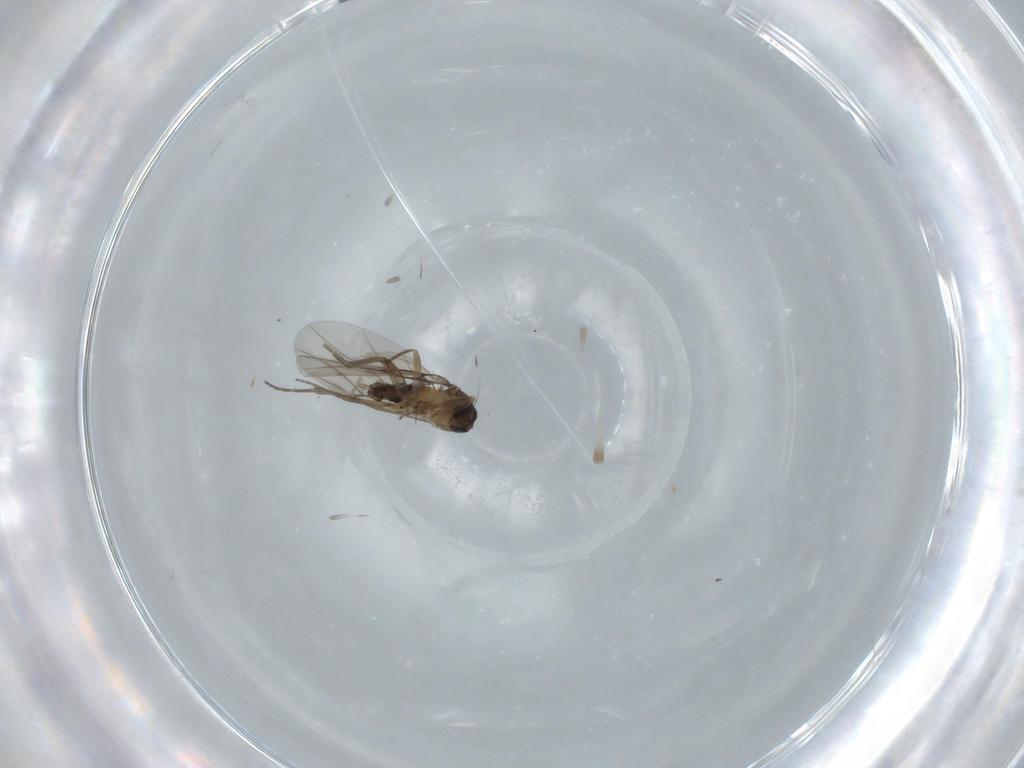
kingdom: Animalia
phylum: Arthropoda
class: Insecta
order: Diptera
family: Phoridae
